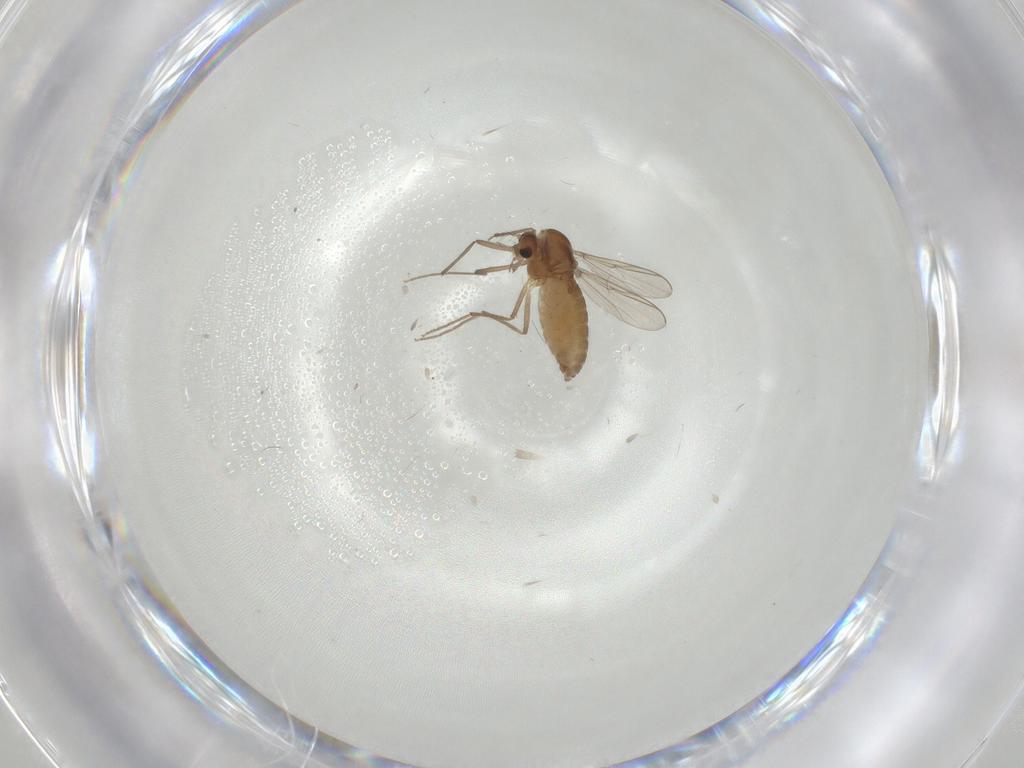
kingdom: Animalia
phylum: Arthropoda
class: Insecta
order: Diptera
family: Chironomidae
